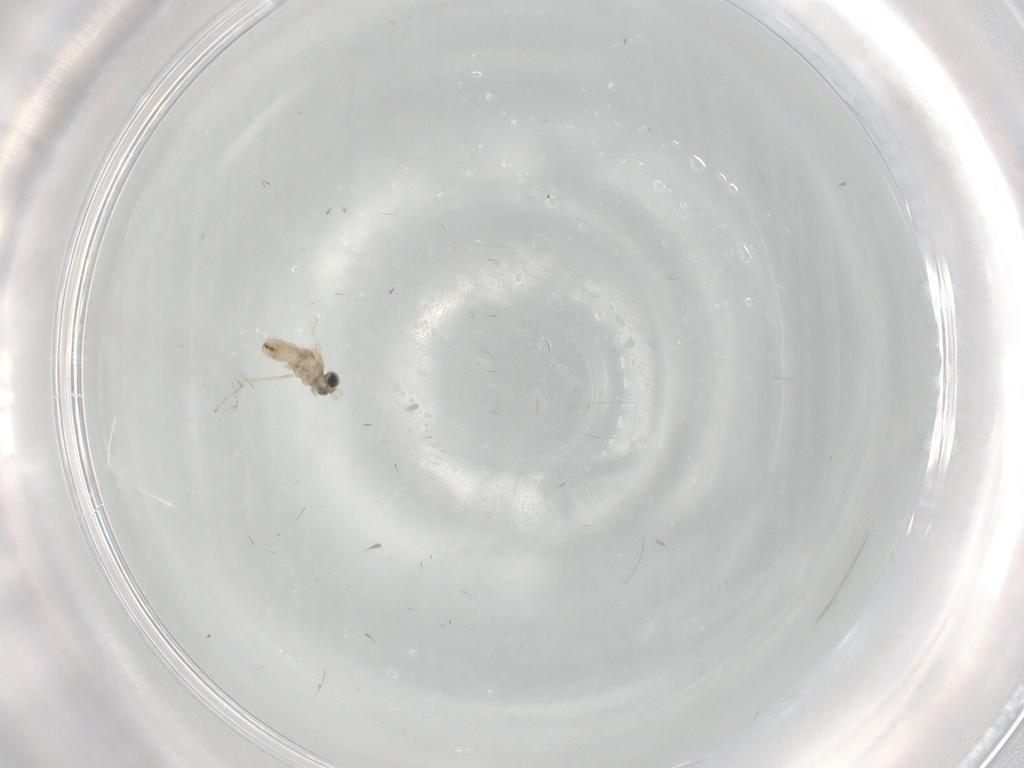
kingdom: Animalia
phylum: Arthropoda
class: Insecta
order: Diptera
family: Cecidomyiidae
